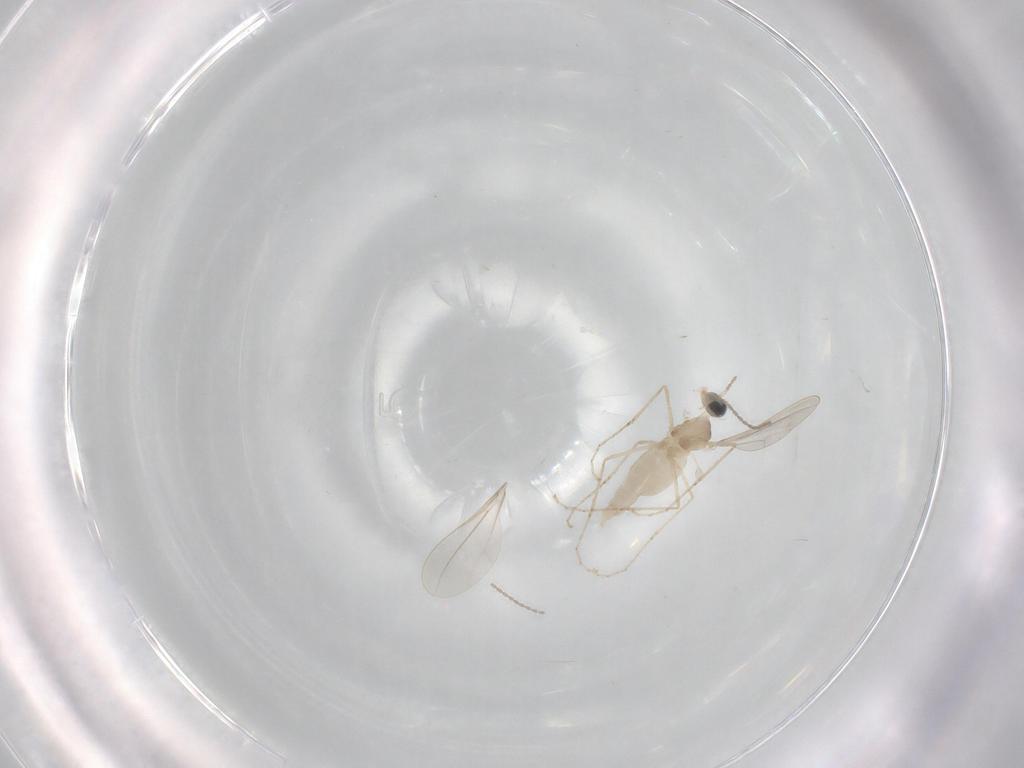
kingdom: Animalia
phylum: Arthropoda
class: Insecta
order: Diptera
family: Cecidomyiidae
